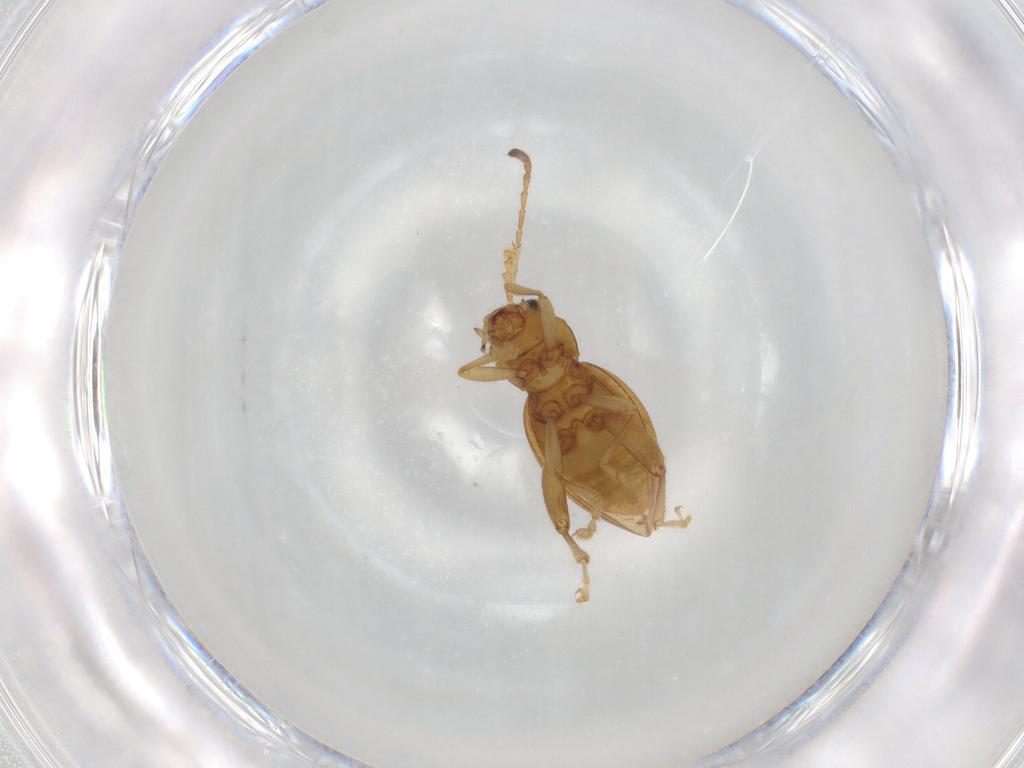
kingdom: Animalia
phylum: Arthropoda
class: Insecta
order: Coleoptera
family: Chrysomelidae
